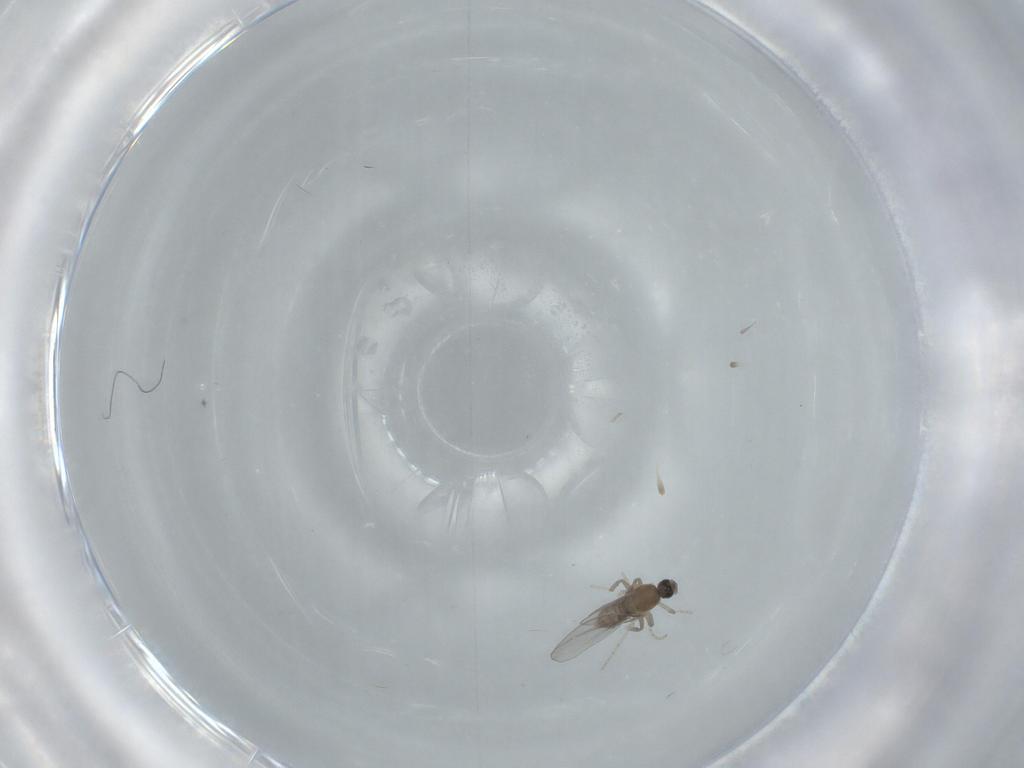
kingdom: Animalia
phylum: Arthropoda
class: Insecta
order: Diptera
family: Cecidomyiidae
